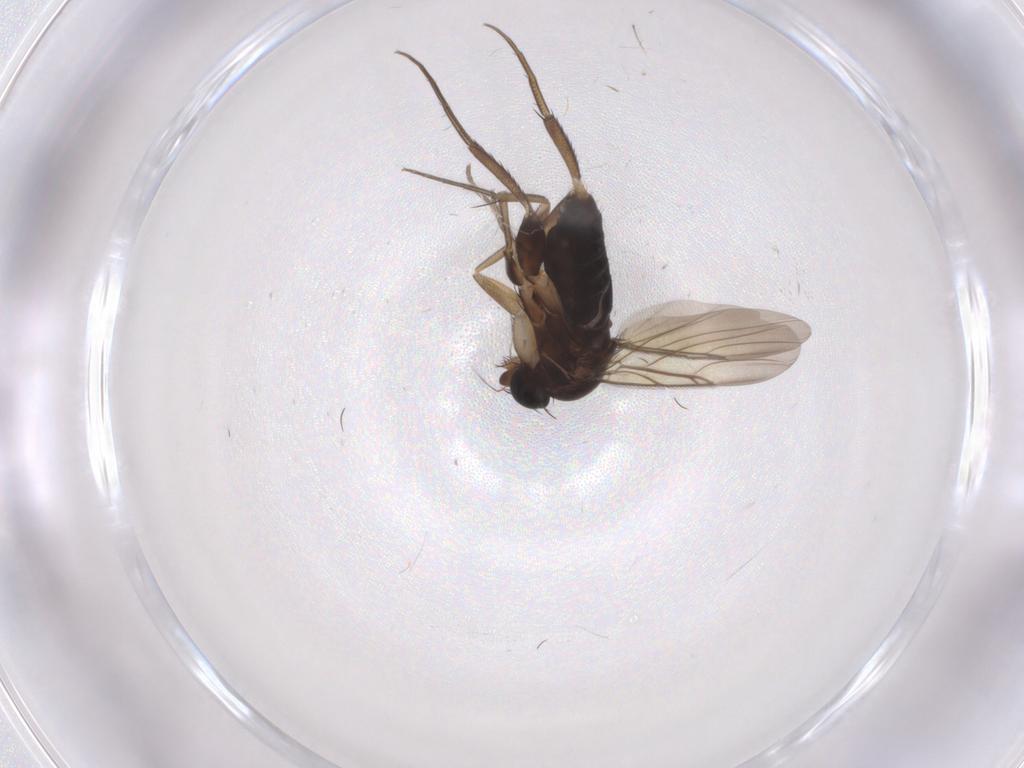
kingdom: Animalia
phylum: Arthropoda
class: Insecta
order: Diptera
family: Phoridae
